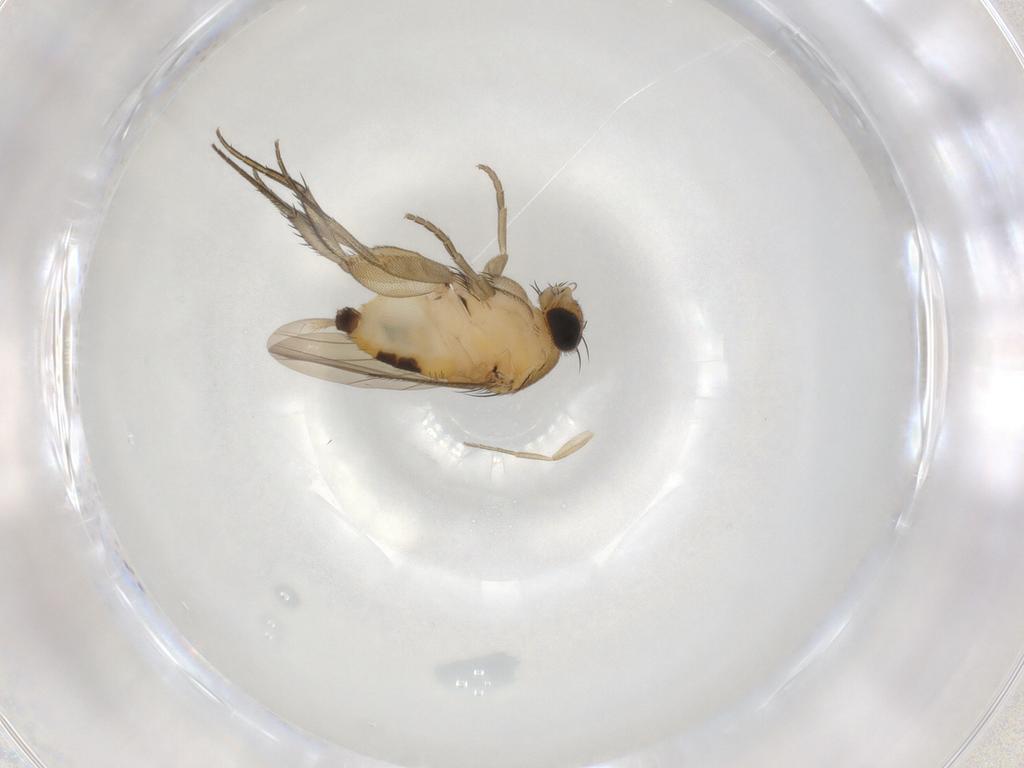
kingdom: Animalia
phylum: Arthropoda
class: Insecta
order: Diptera
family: Phoridae
